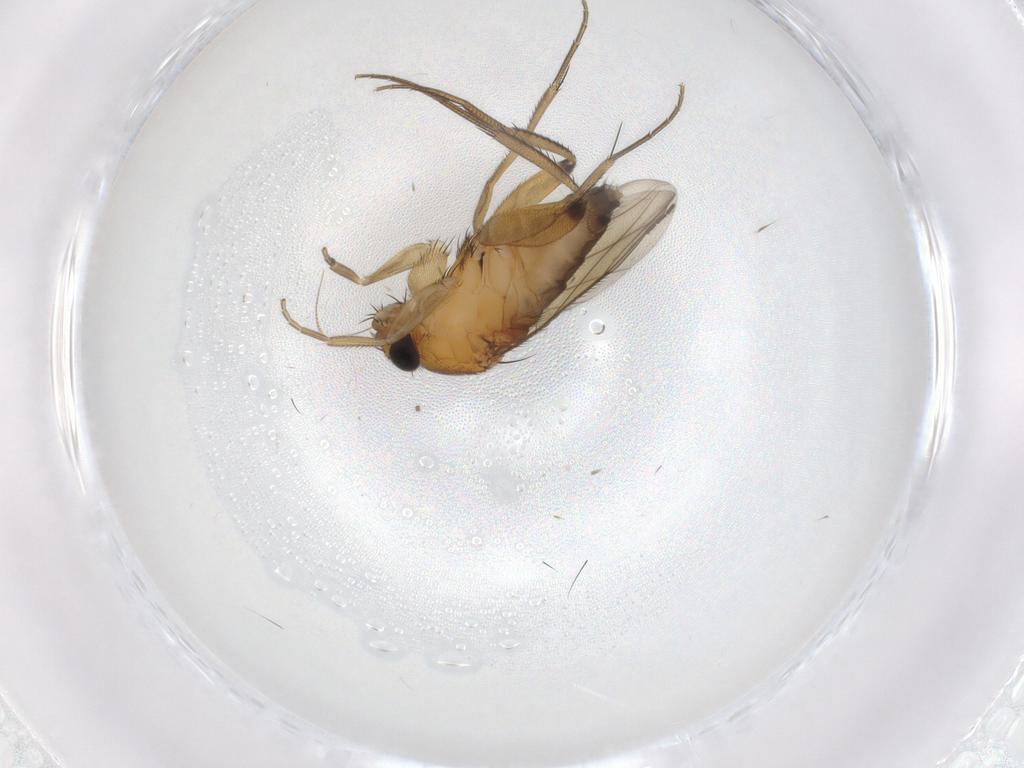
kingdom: Animalia
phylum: Arthropoda
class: Insecta
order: Diptera
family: Phoridae
